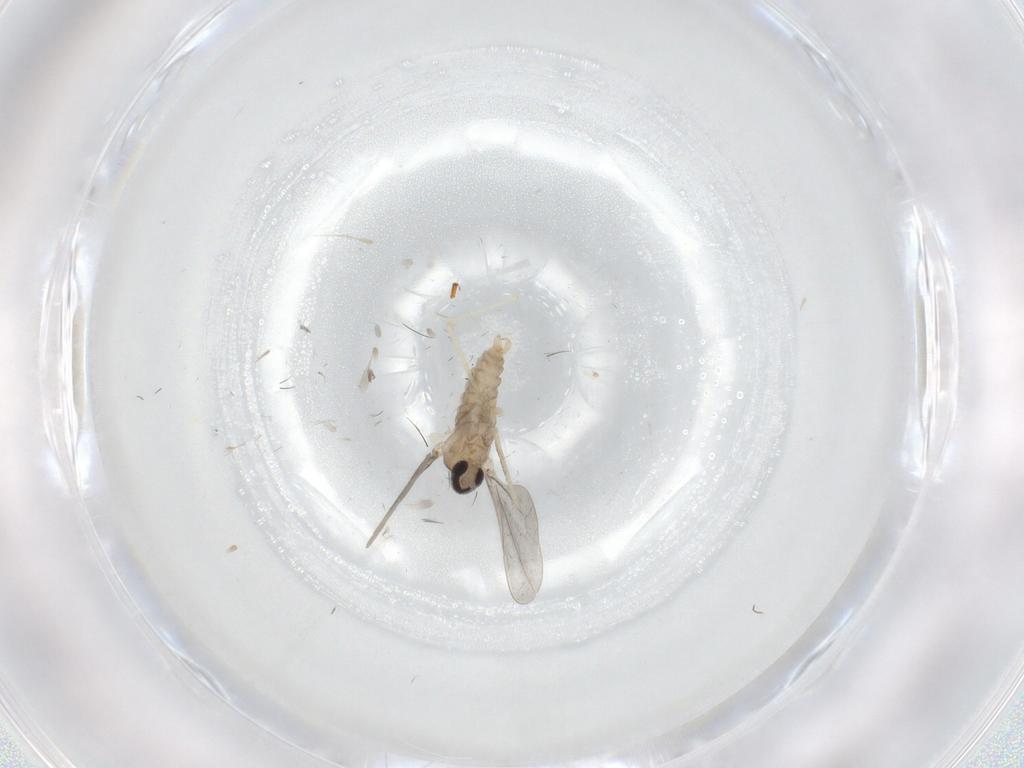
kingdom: Animalia
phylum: Arthropoda
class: Insecta
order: Diptera
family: Cecidomyiidae
